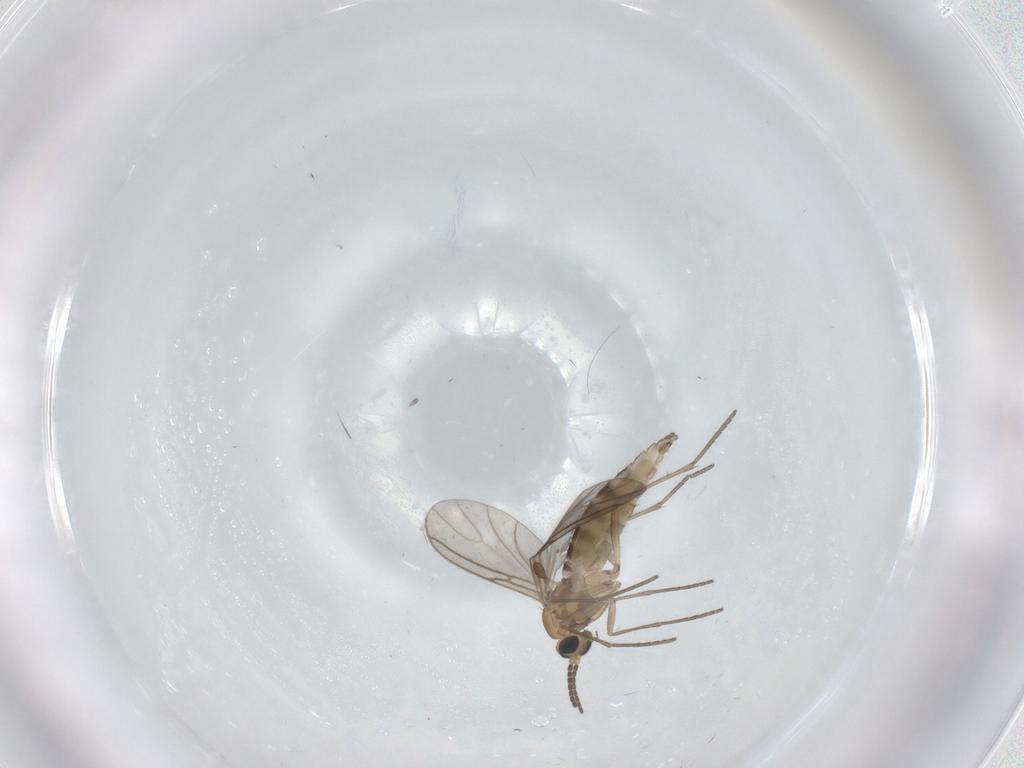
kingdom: Animalia
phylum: Arthropoda
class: Insecta
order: Diptera
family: Sciaridae
